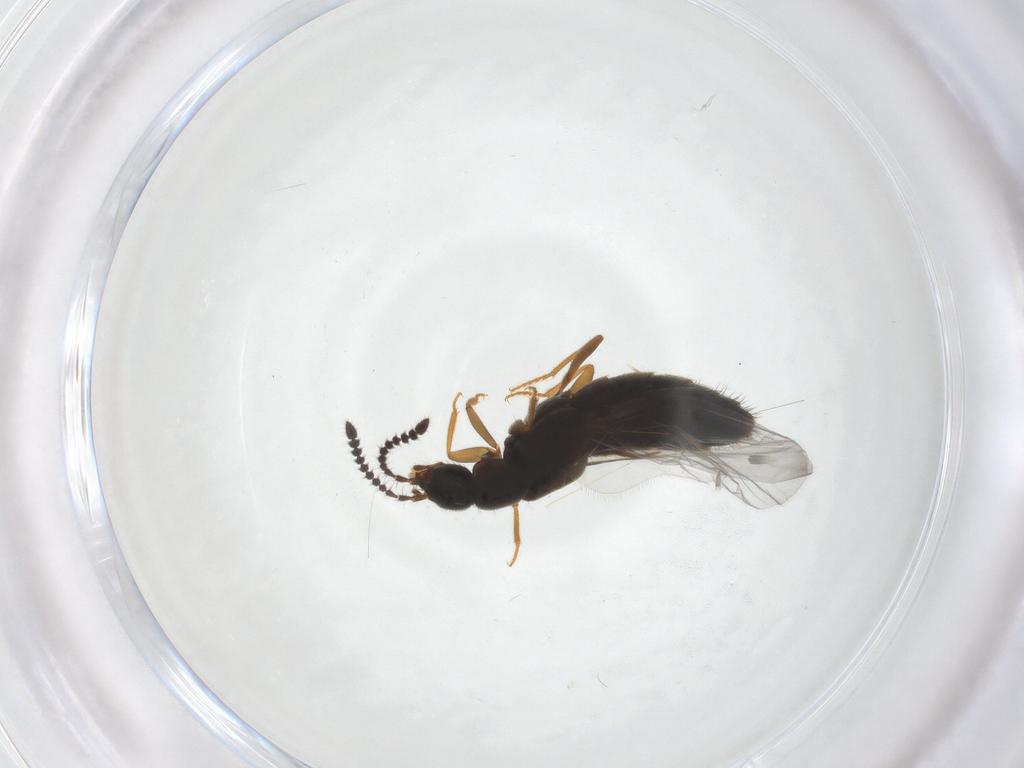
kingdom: Animalia
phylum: Arthropoda
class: Insecta
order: Coleoptera
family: Staphylinidae
